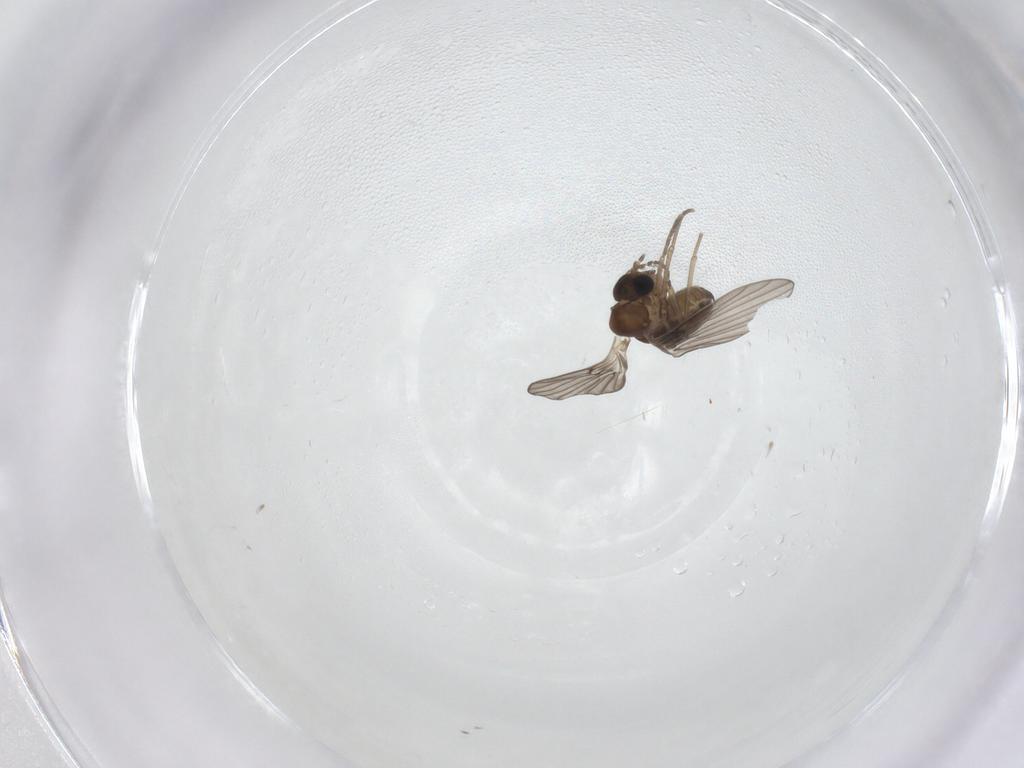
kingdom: Animalia
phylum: Arthropoda
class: Insecta
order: Diptera
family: Psychodidae
